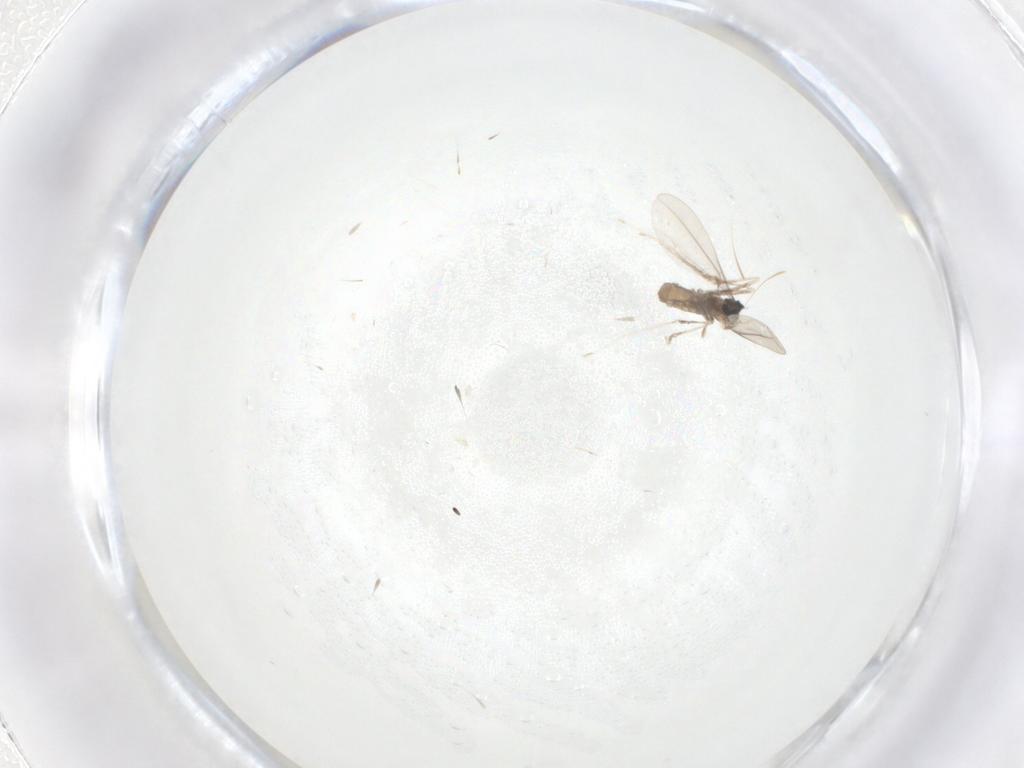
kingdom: Animalia
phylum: Arthropoda
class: Insecta
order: Diptera
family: Cecidomyiidae
